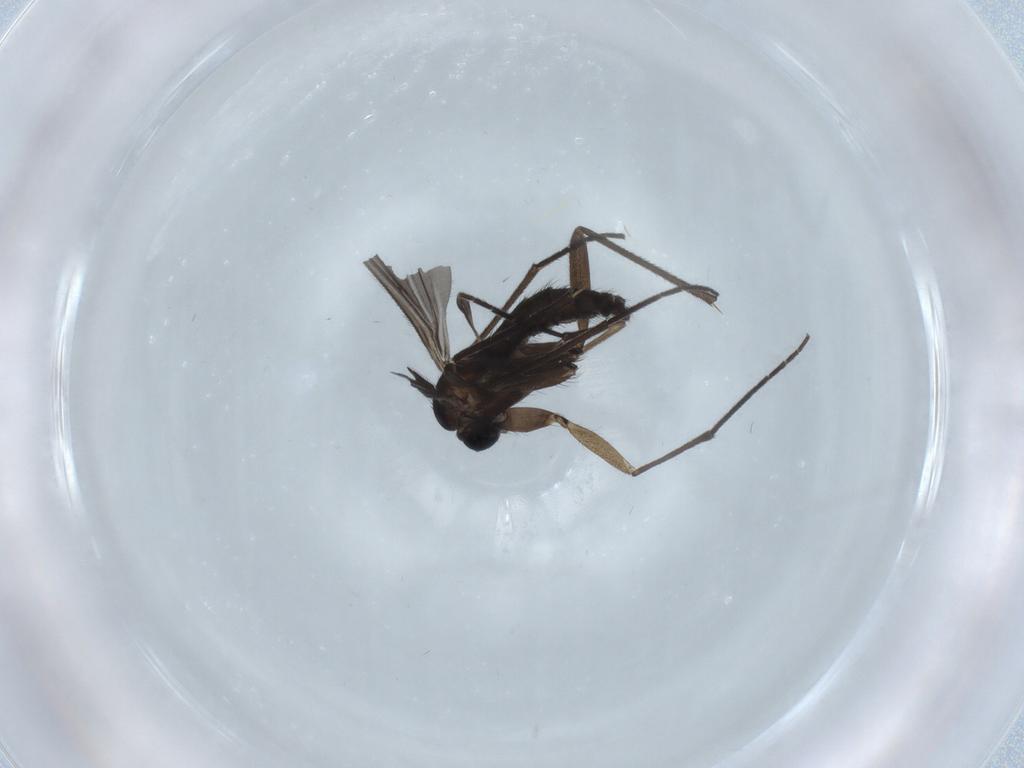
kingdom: Animalia
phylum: Arthropoda
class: Insecta
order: Diptera
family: Sciaridae
